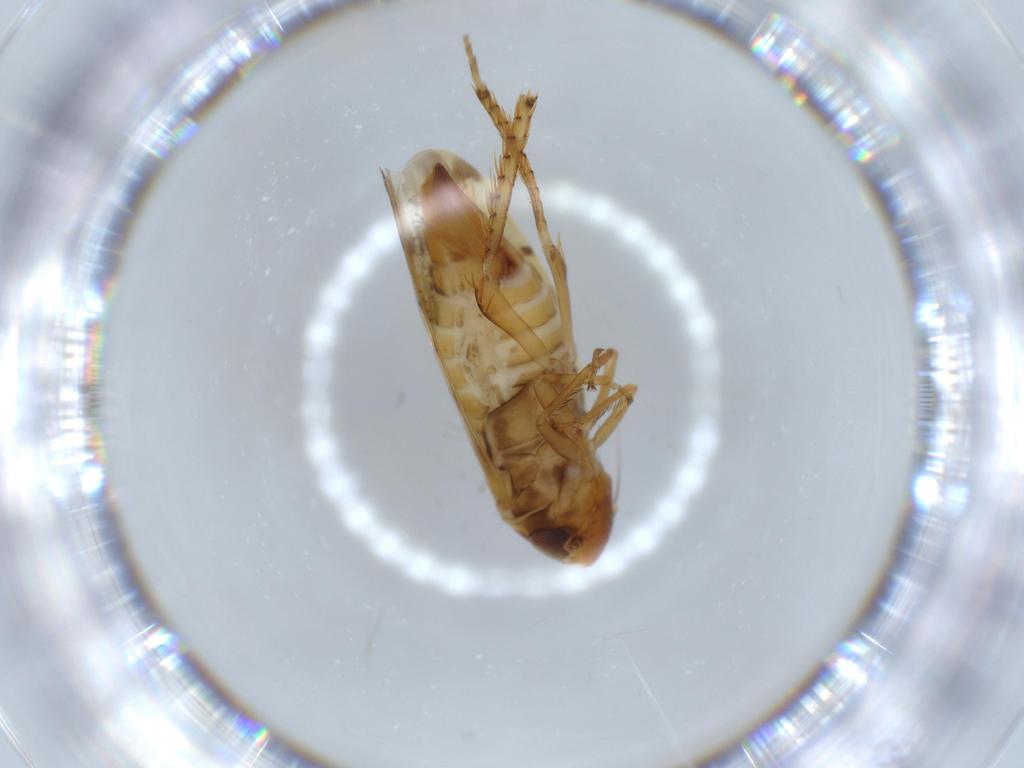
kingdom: Animalia
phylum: Arthropoda
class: Insecta
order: Hemiptera
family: Cicadellidae
